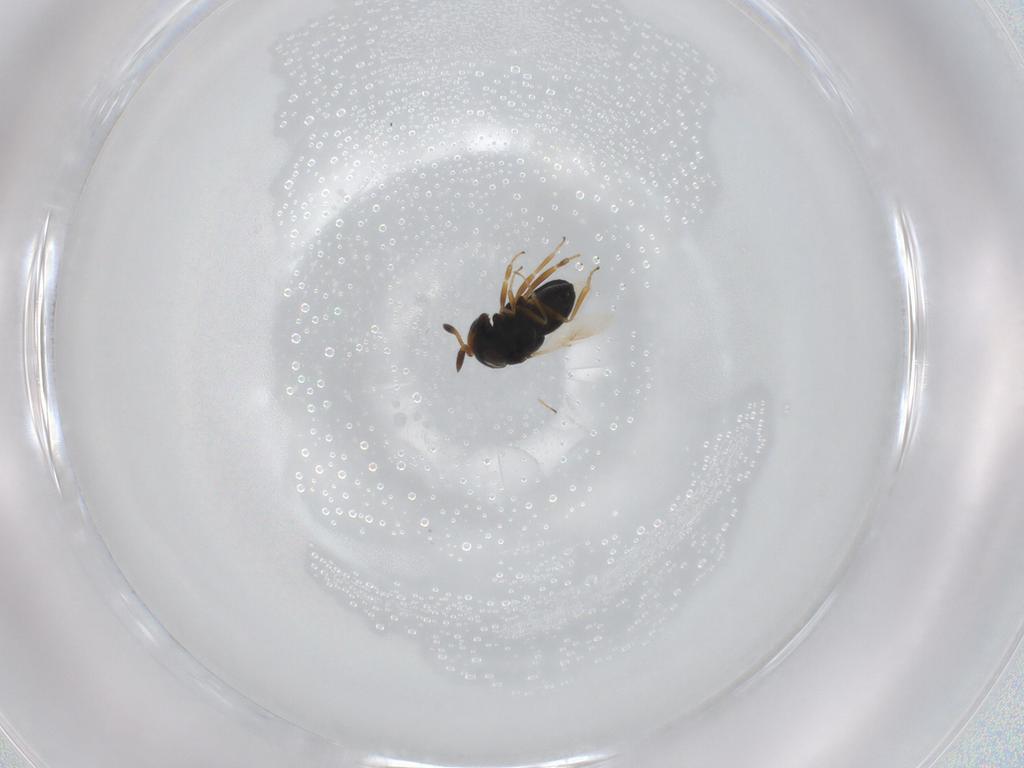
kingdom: Animalia
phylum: Arthropoda
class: Insecta
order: Hymenoptera
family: Scelionidae
